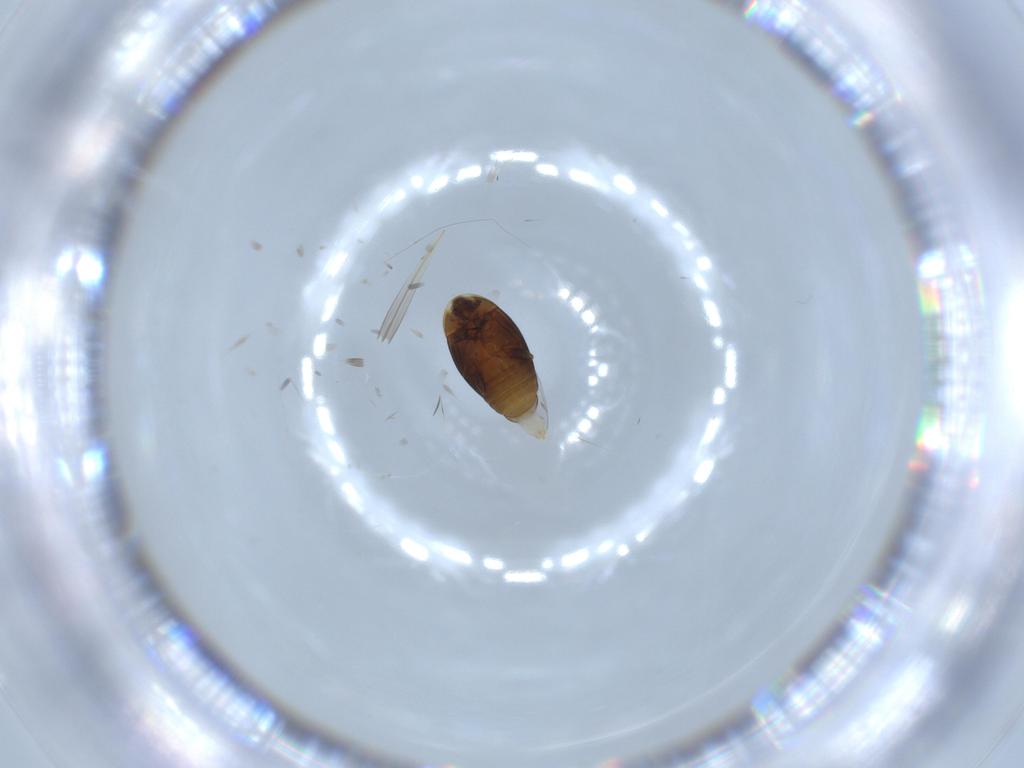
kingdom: Animalia
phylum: Arthropoda
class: Insecta
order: Coleoptera
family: Corylophidae
